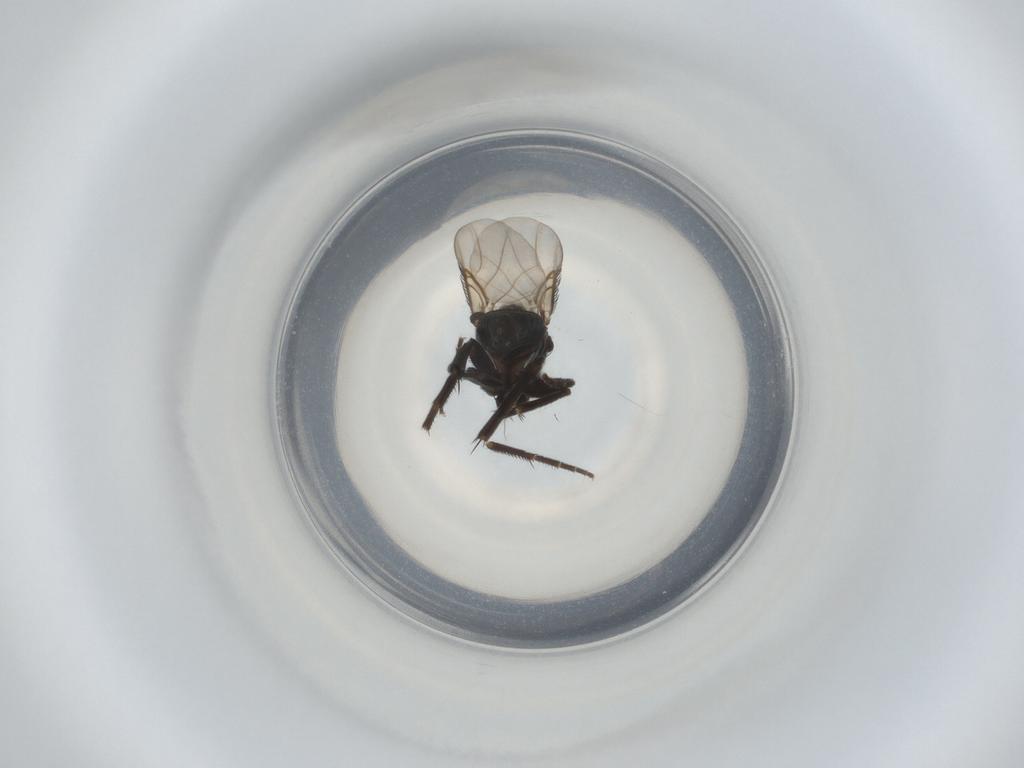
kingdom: Animalia
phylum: Arthropoda
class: Insecta
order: Diptera
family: Phoridae
